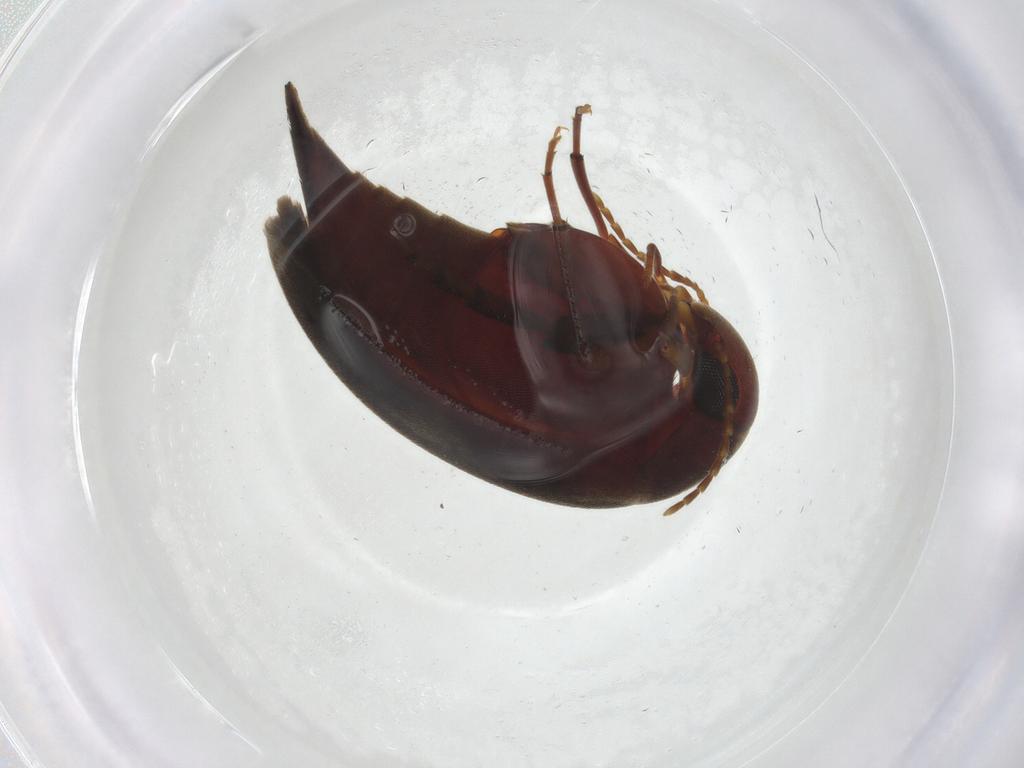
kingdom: Animalia
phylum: Arthropoda
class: Insecta
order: Coleoptera
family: Mordellidae
